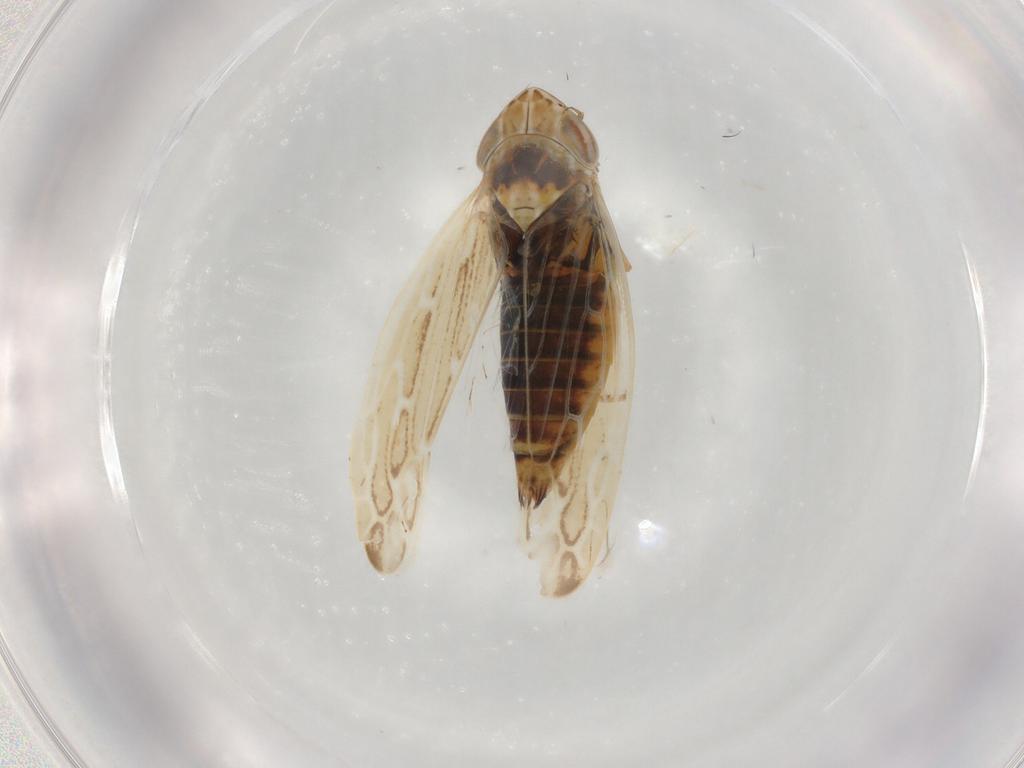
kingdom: Animalia
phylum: Arthropoda
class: Insecta
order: Hemiptera
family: Cicadellidae
